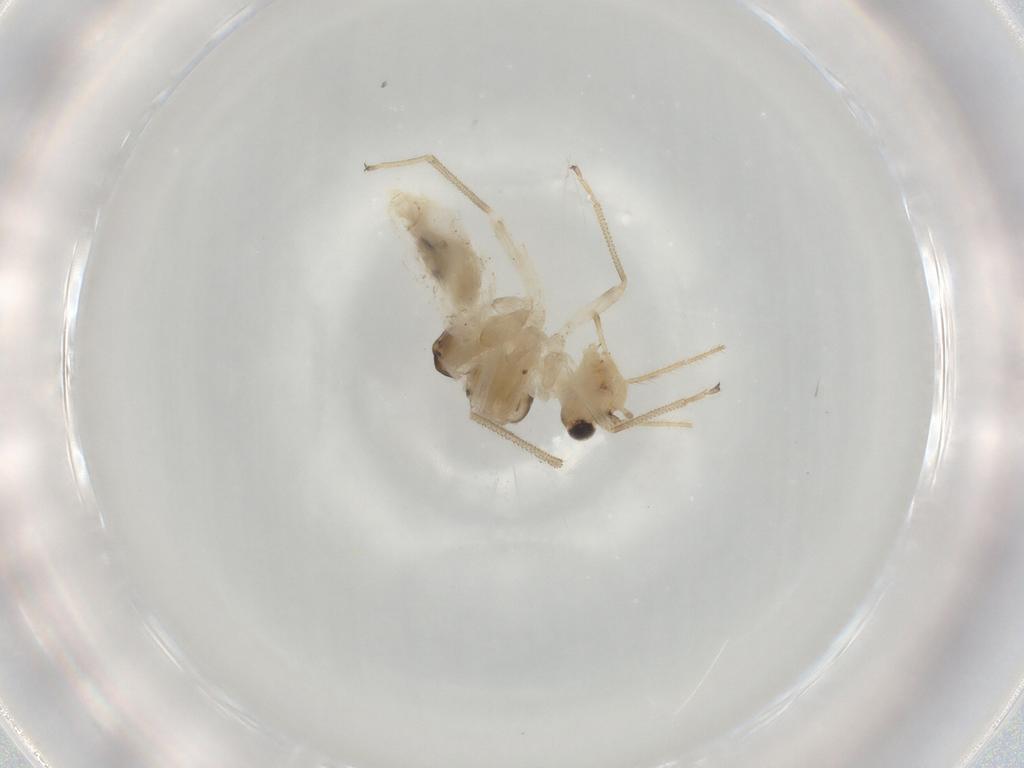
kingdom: Animalia
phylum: Arthropoda
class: Insecta
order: Psocodea
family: Caeciliusidae
